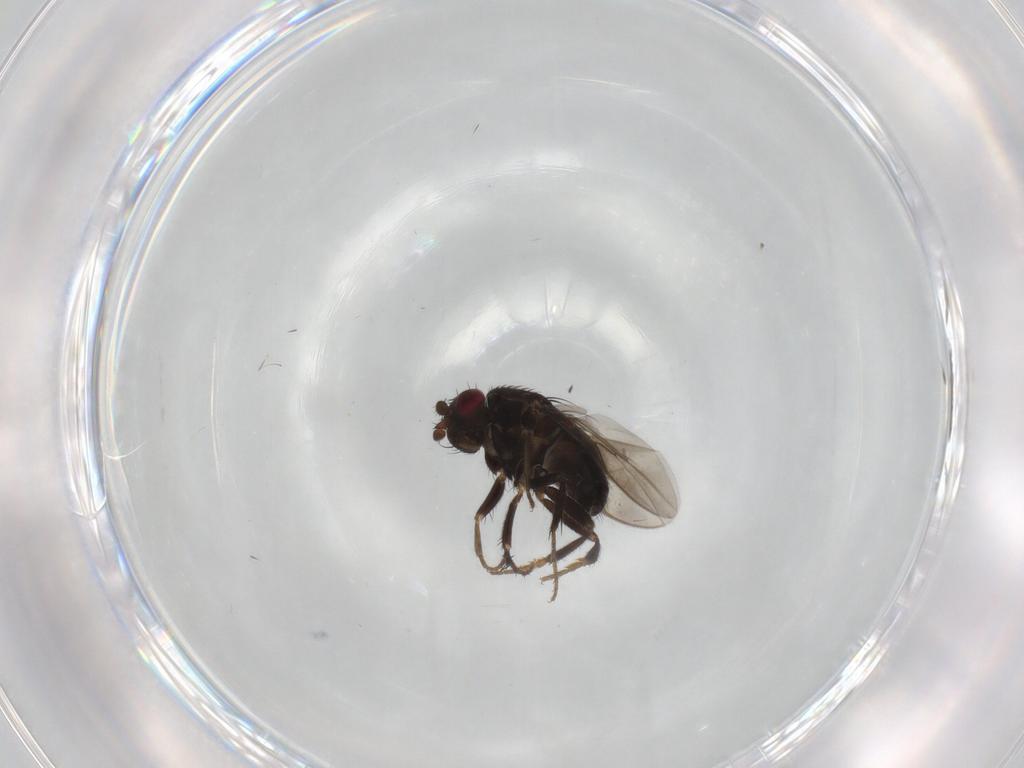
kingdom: Animalia
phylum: Arthropoda
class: Insecta
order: Diptera
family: Sphaeroceridae
